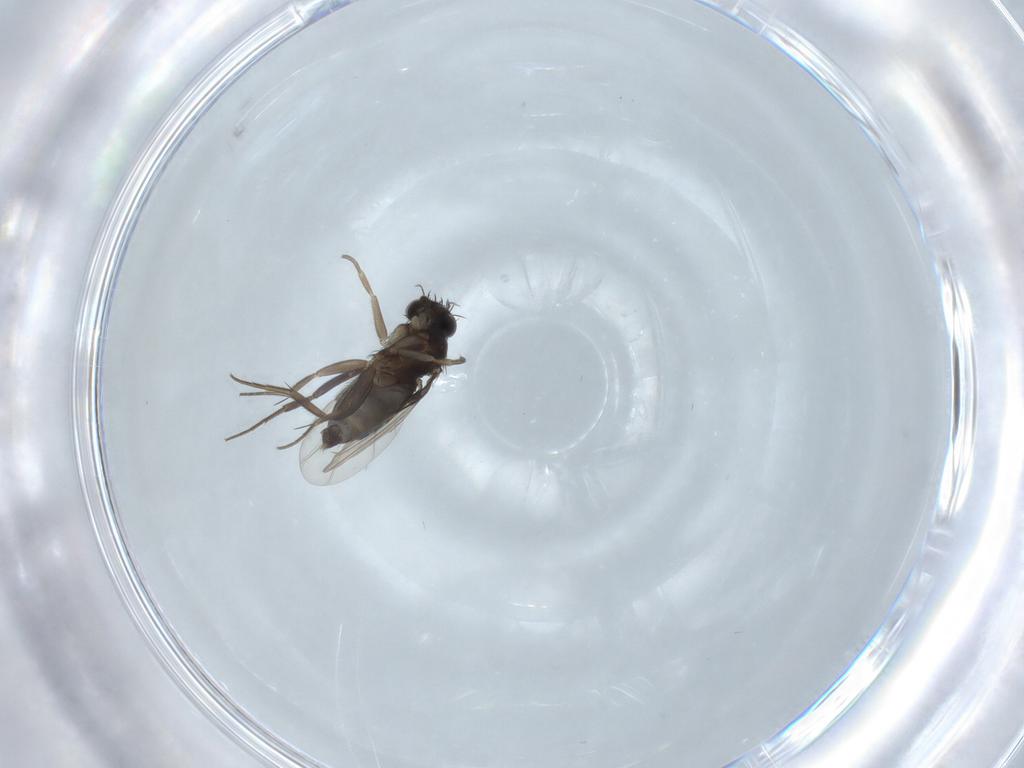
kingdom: Animalia
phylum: Arthropoda
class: Insecta
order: Diptera
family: Phoridae
